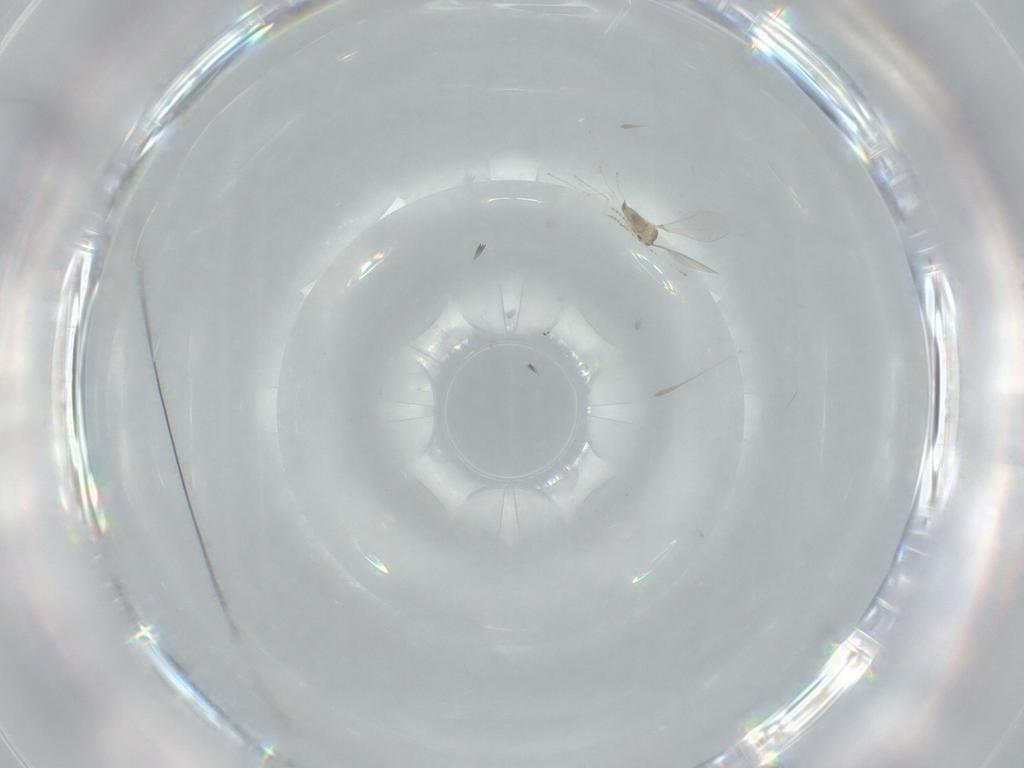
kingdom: Animalia
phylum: Arthropoda
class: Insecta
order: Diptera
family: Cecidomyiidae
